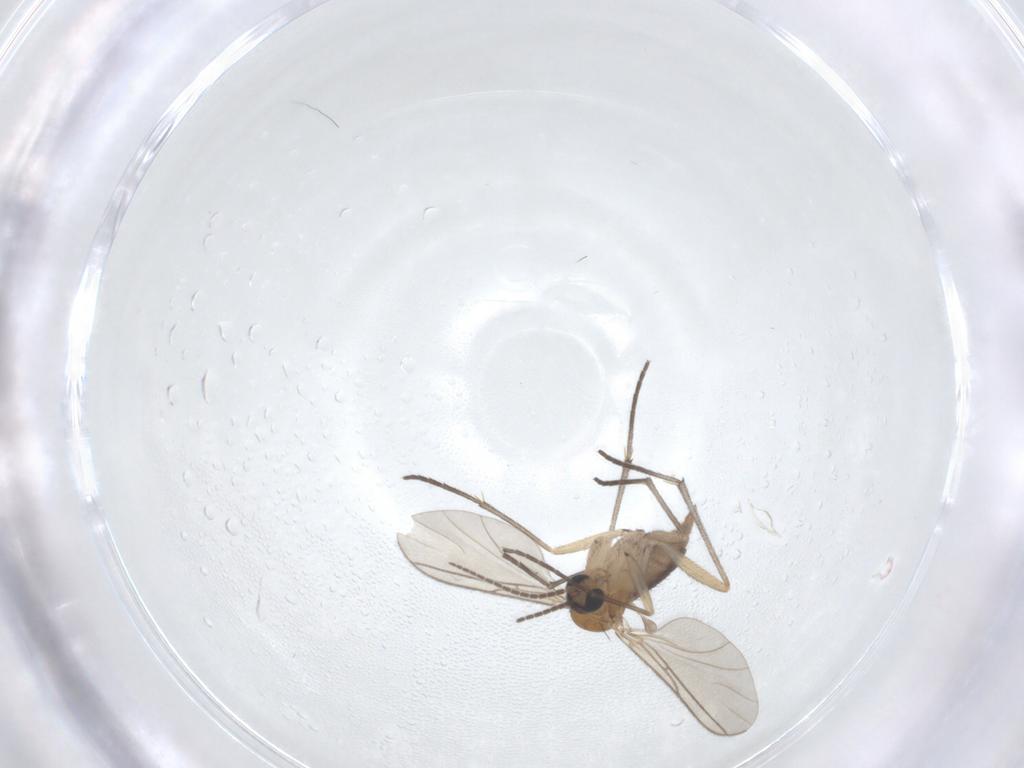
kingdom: Animalia
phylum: Arthropoda
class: Insecta
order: Diptera
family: Sciaridae
